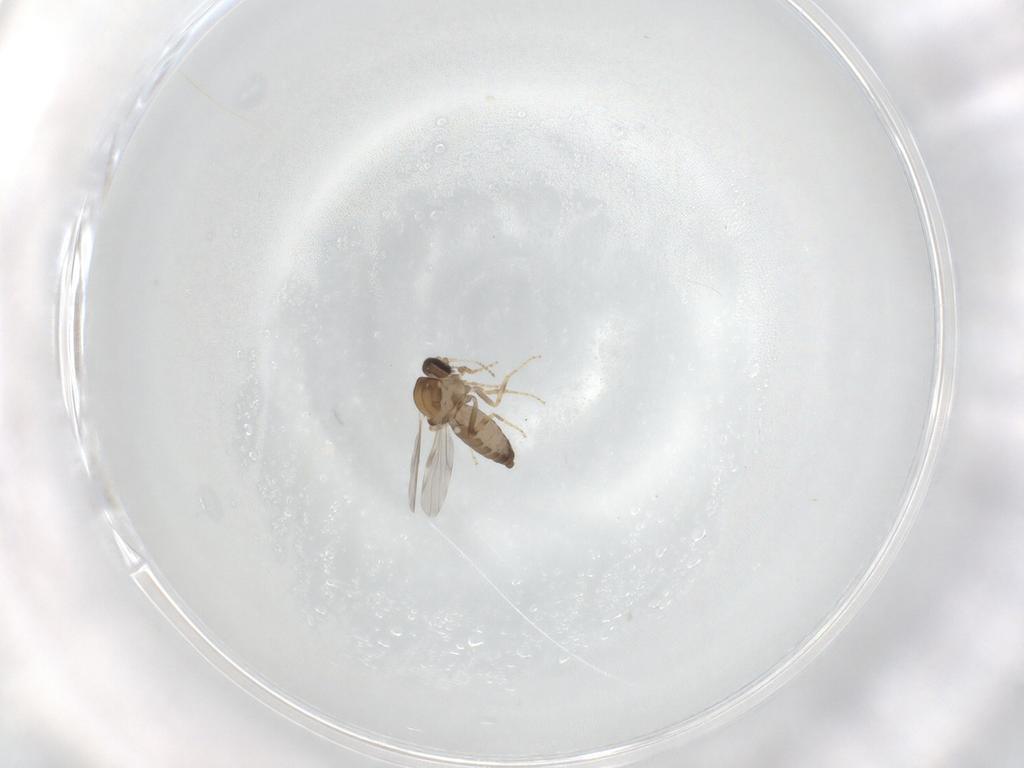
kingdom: Animalia
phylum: Arthropoda
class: Insecta
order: Diptera
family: Ceratopogonidae
